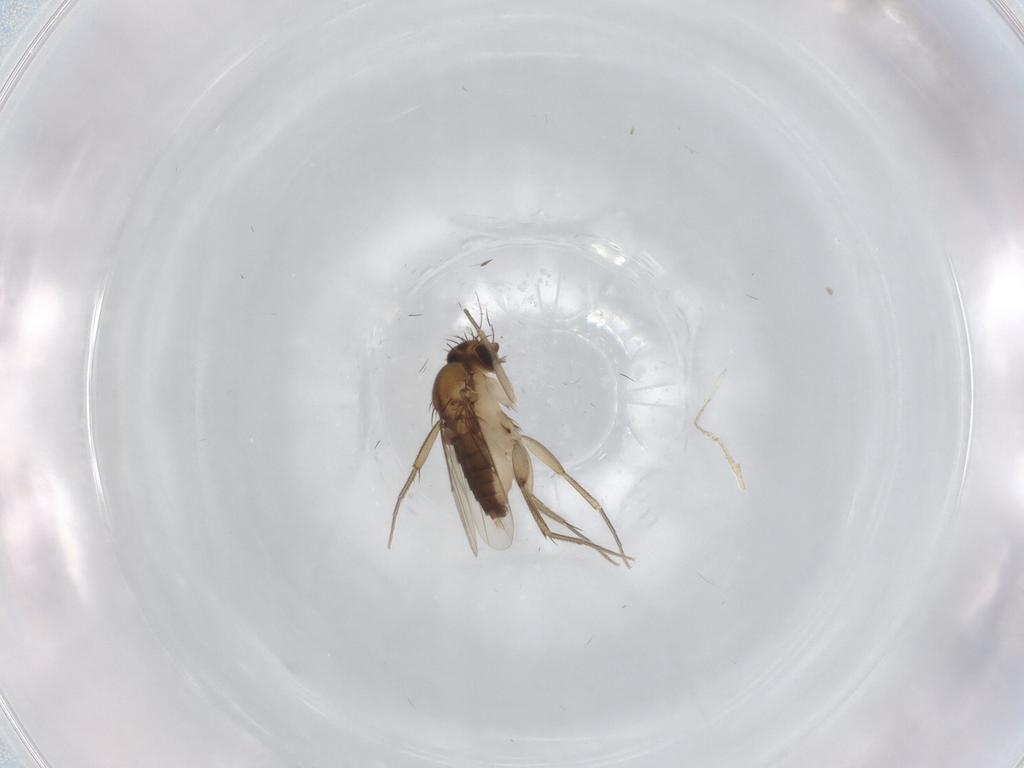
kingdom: Animalia
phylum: Arthropoda
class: Insecta
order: Diptera
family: Phoridae
